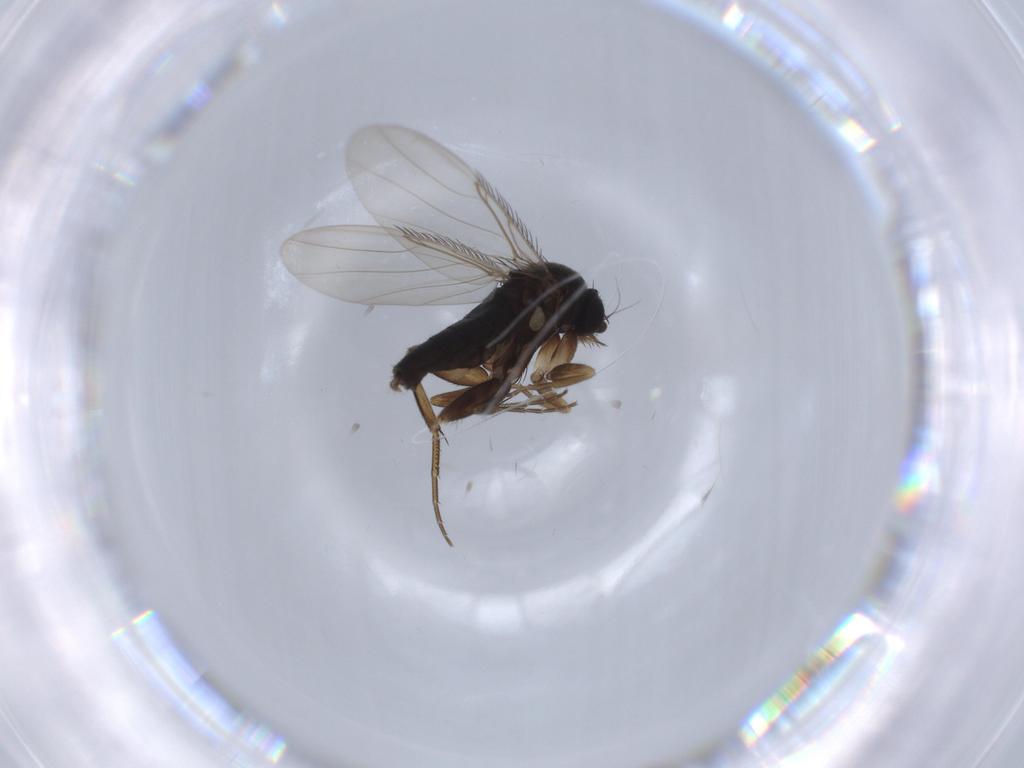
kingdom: Animalia
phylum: Arthropoda
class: Insecta
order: Diptera
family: Phoridae
